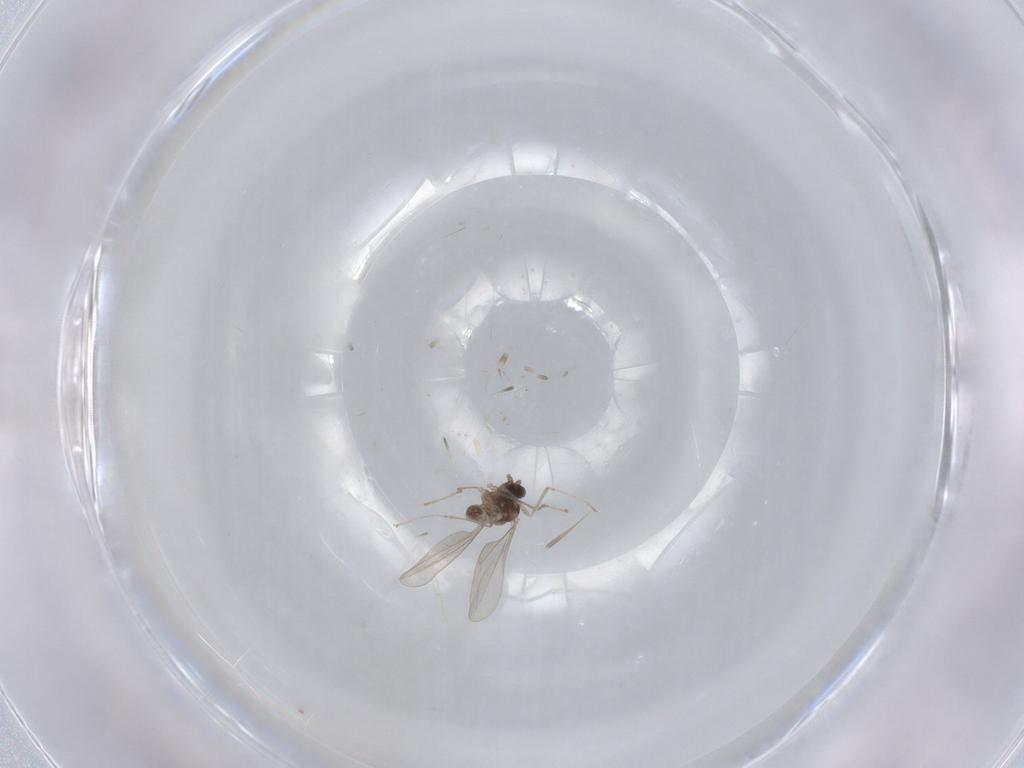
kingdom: Animalia
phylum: Arthropoda
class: Insecta
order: Diptera
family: Cecidomyiidae
